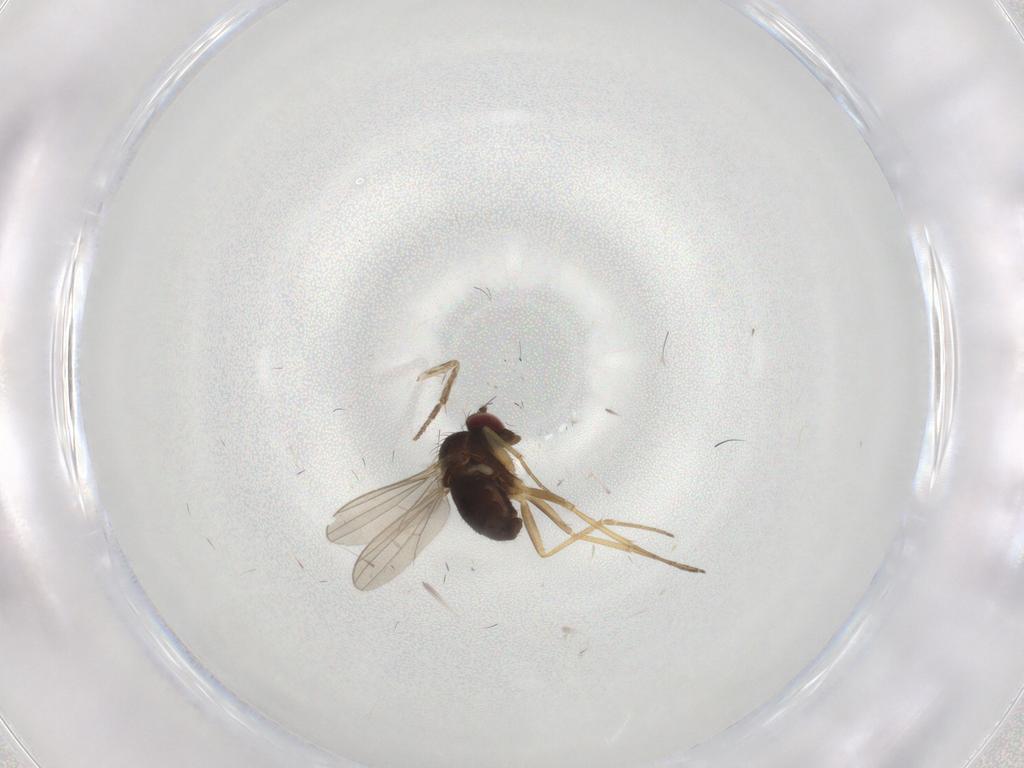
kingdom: Animalia
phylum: Arthropoda
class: Insecta
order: Diptera
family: Dolichopodidae
